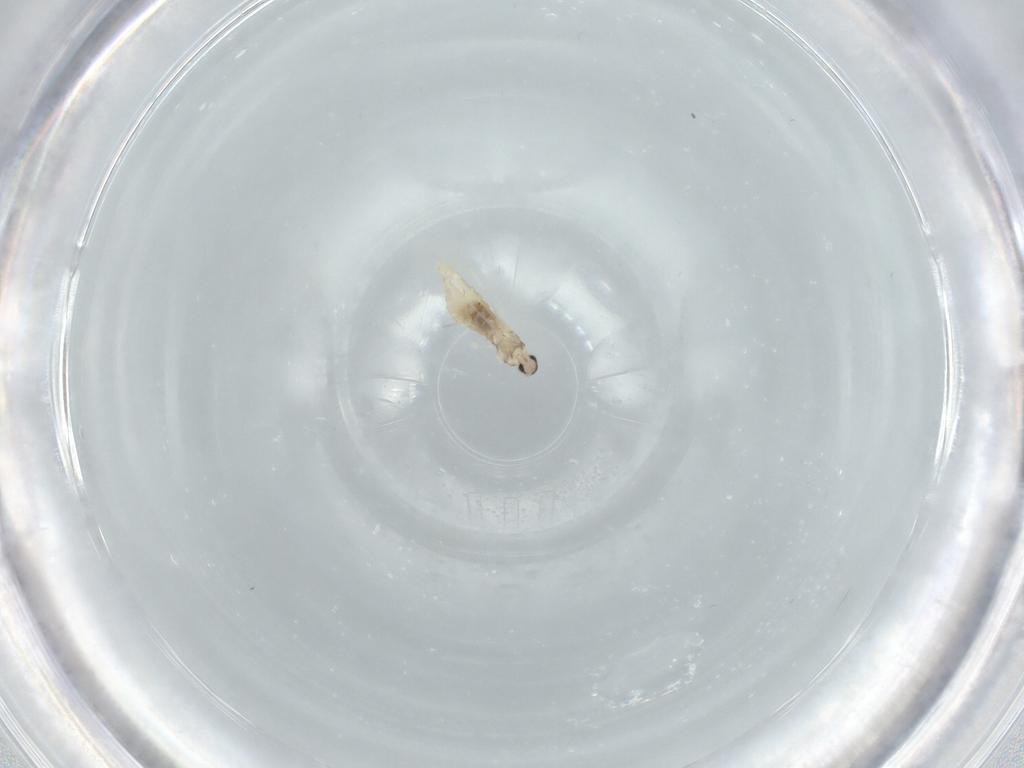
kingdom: Animalia
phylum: Arthropoda
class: Insecta
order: Diptera
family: Cecidomyiidae
